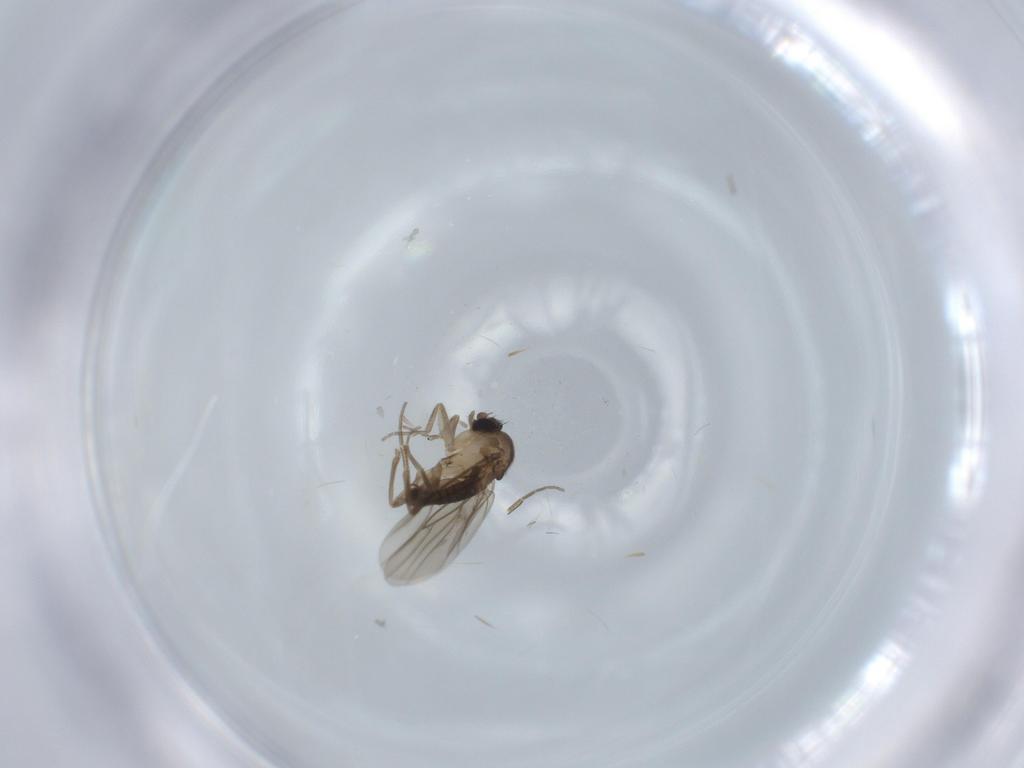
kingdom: Animalia
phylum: Arthropoda
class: Insecta
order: Diptera
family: Phoridae
